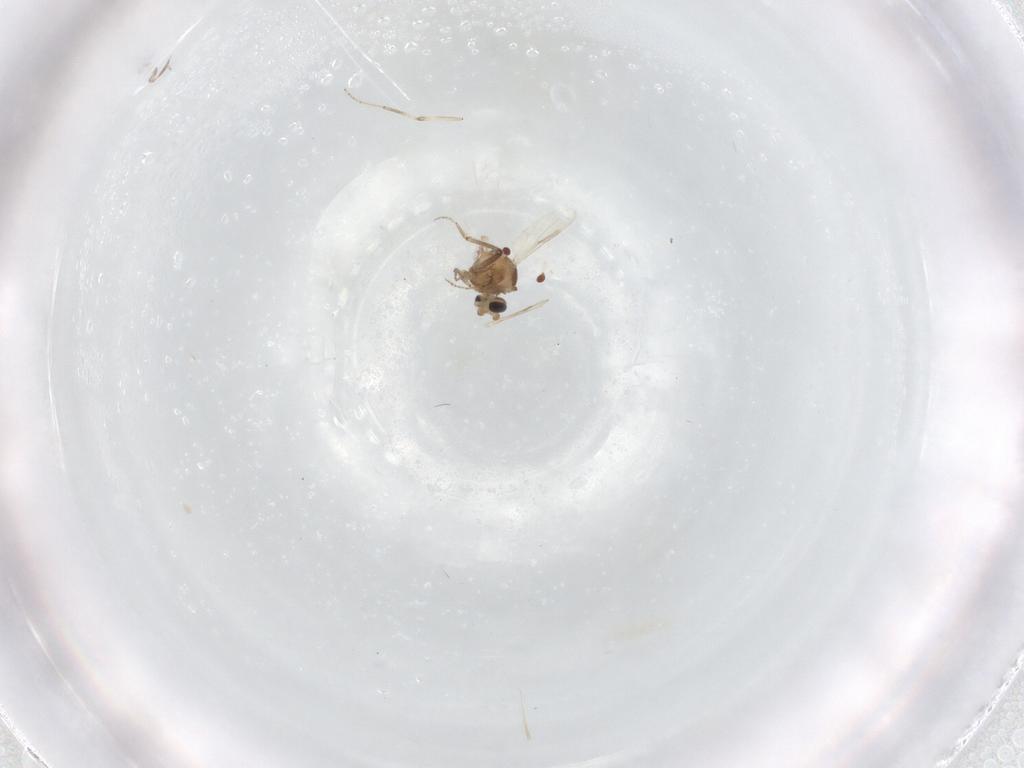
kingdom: Animalia
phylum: Arthropoda
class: Insecta
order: Diptera
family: Ceratopogonidae
